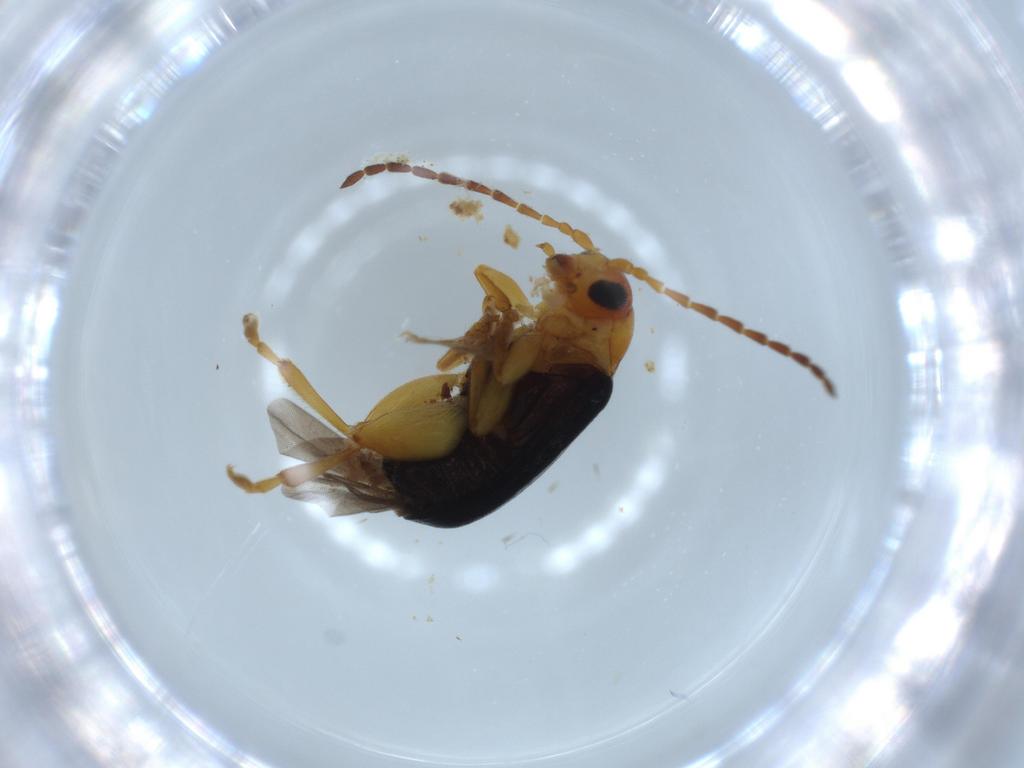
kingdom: Animalia
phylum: Arthropoda
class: Insecta
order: Coleoptera
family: Chrysomelidae
